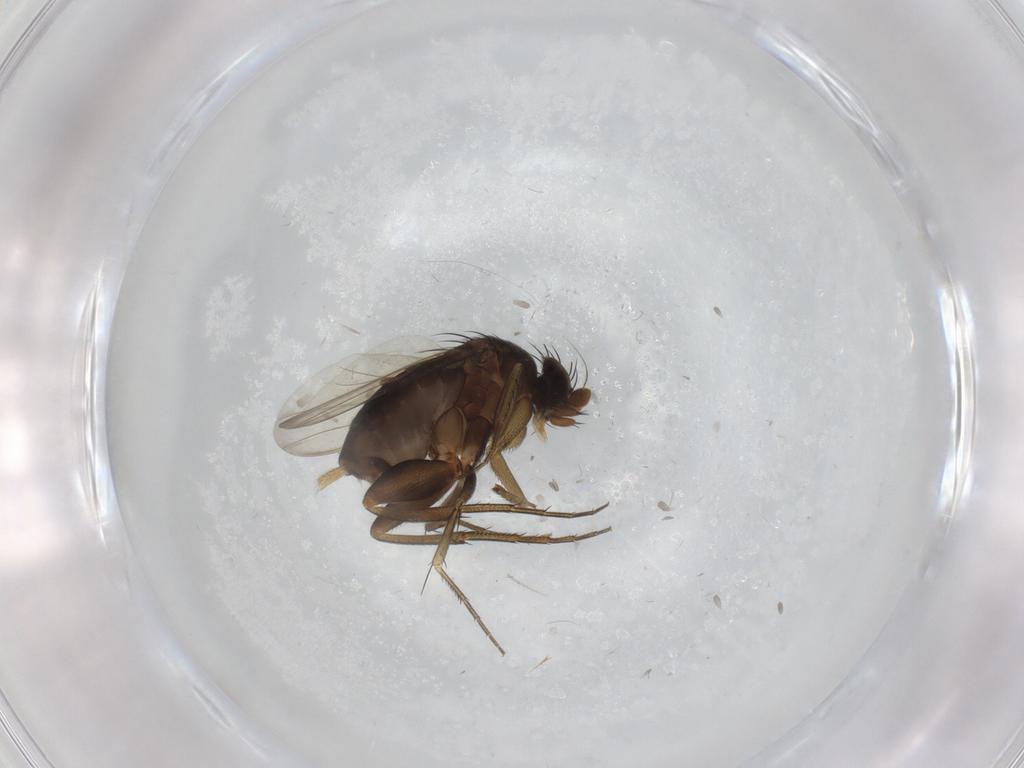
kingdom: Animalia
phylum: Arthropoda
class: Insecta
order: Diptera
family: Phoridae
